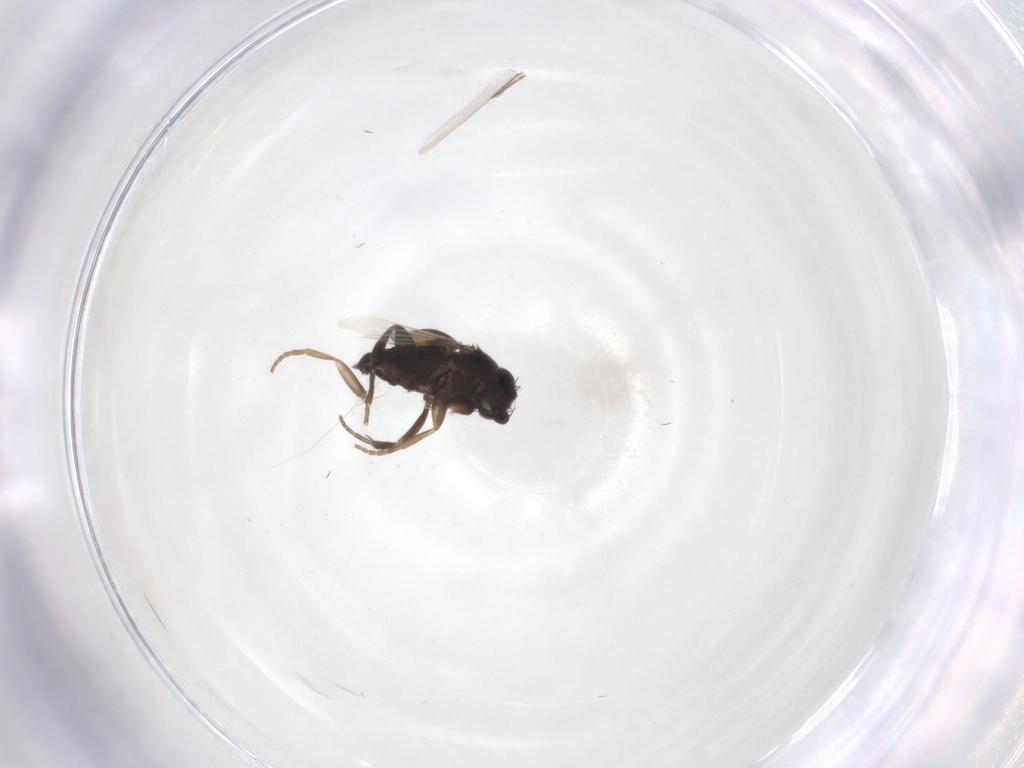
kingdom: Animalia
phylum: Arthropoda
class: Insecta
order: Diptera
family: Phoridae
